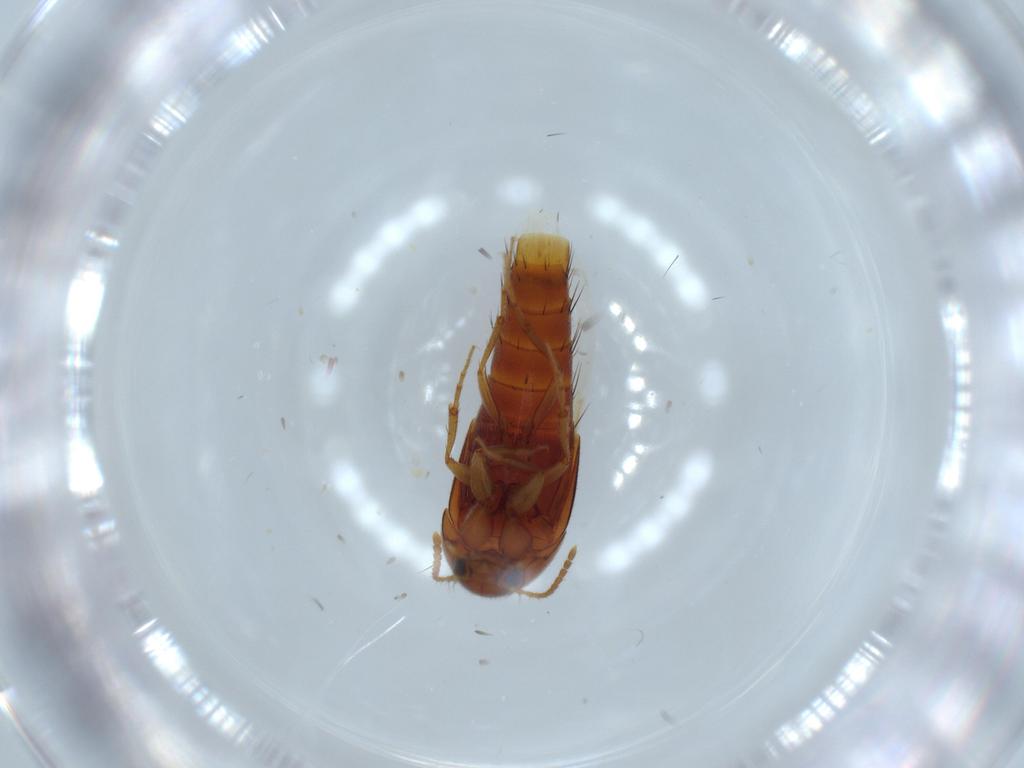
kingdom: Animalia
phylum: Arthropoda
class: Insecta
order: Coleoptera
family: Staphylinidae
